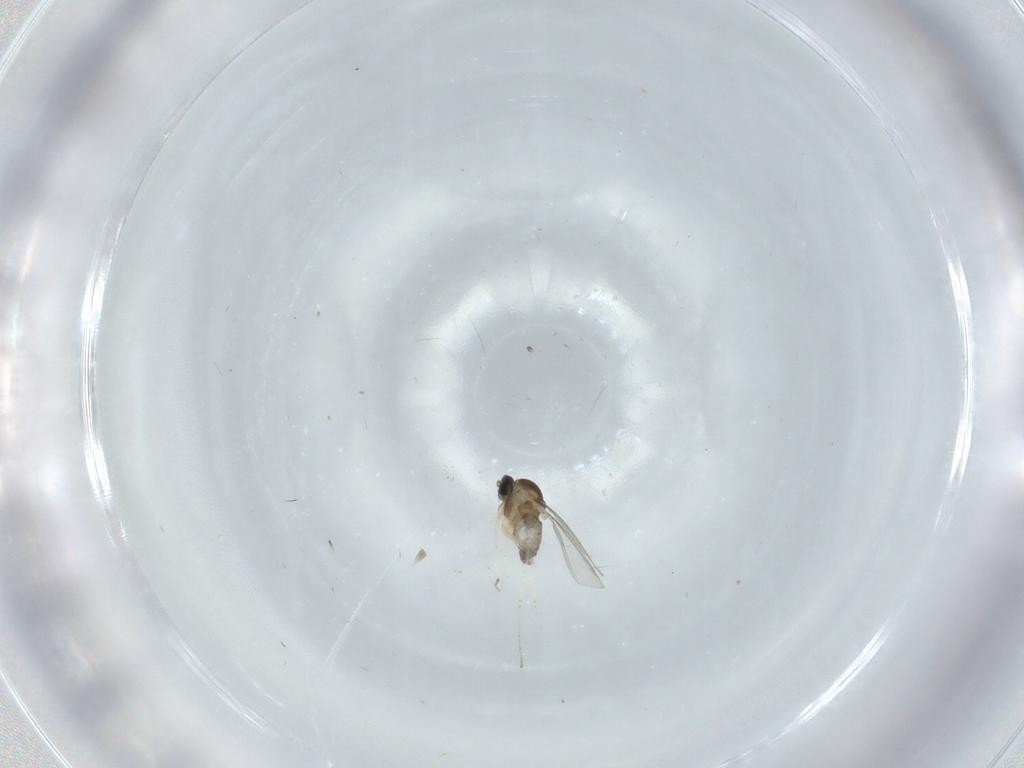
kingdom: Animalia
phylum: Arthropoda
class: Insecta
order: Diptera
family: Cecidomyiidae
